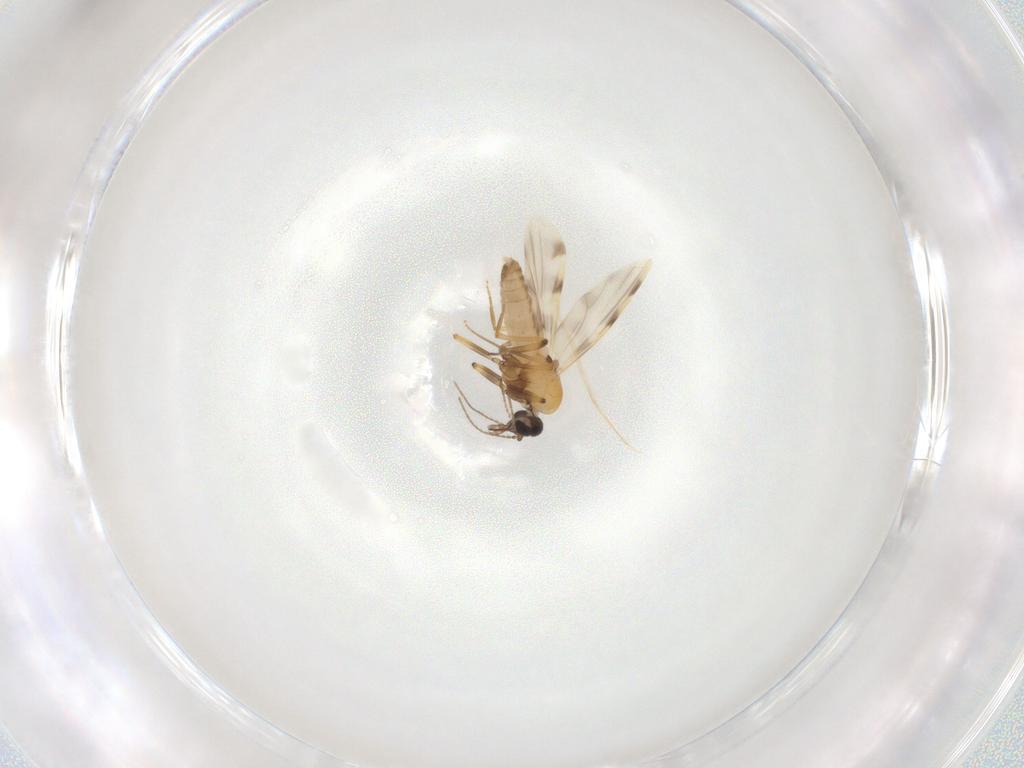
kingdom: Animalia
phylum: Arthropoda
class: Insecta
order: Diptera
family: Ceratopogonidae
